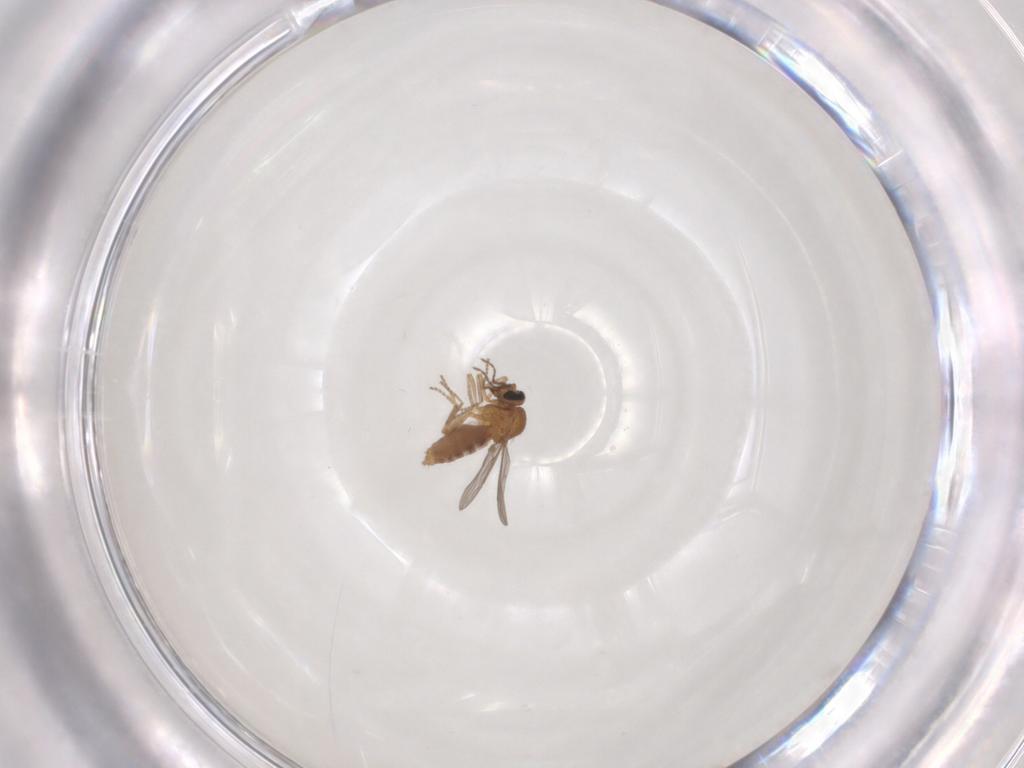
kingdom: Animalia
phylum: Arthropoda
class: Insecta
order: Diptera
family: Ceratopogonidae
